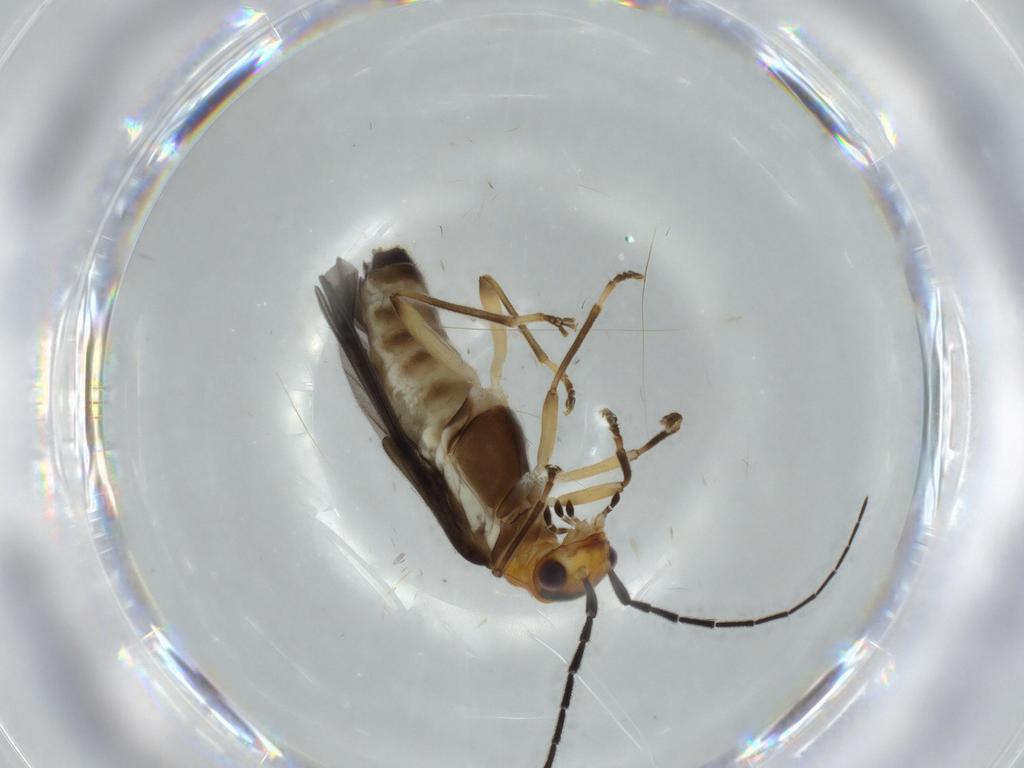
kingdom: Animalia
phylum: Arthropoda
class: Insecta
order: Coleoptera
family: Cantharidae
